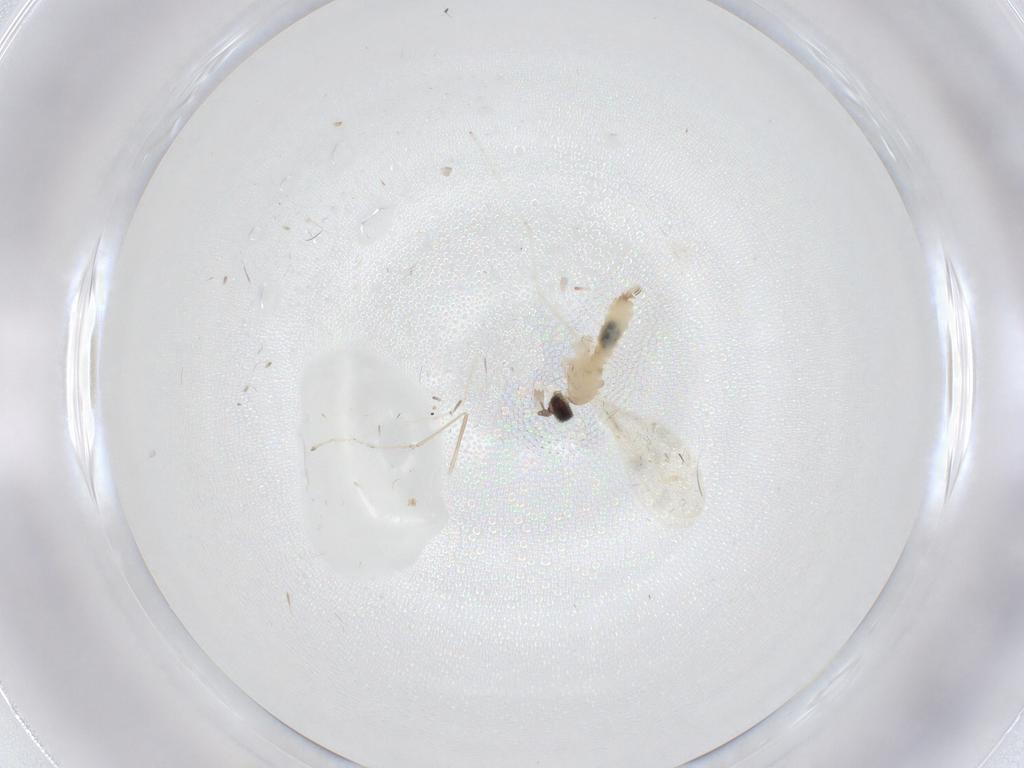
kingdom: Animalia
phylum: Arthropoda
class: Insecta
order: Diptera
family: Cecidomyiidae
